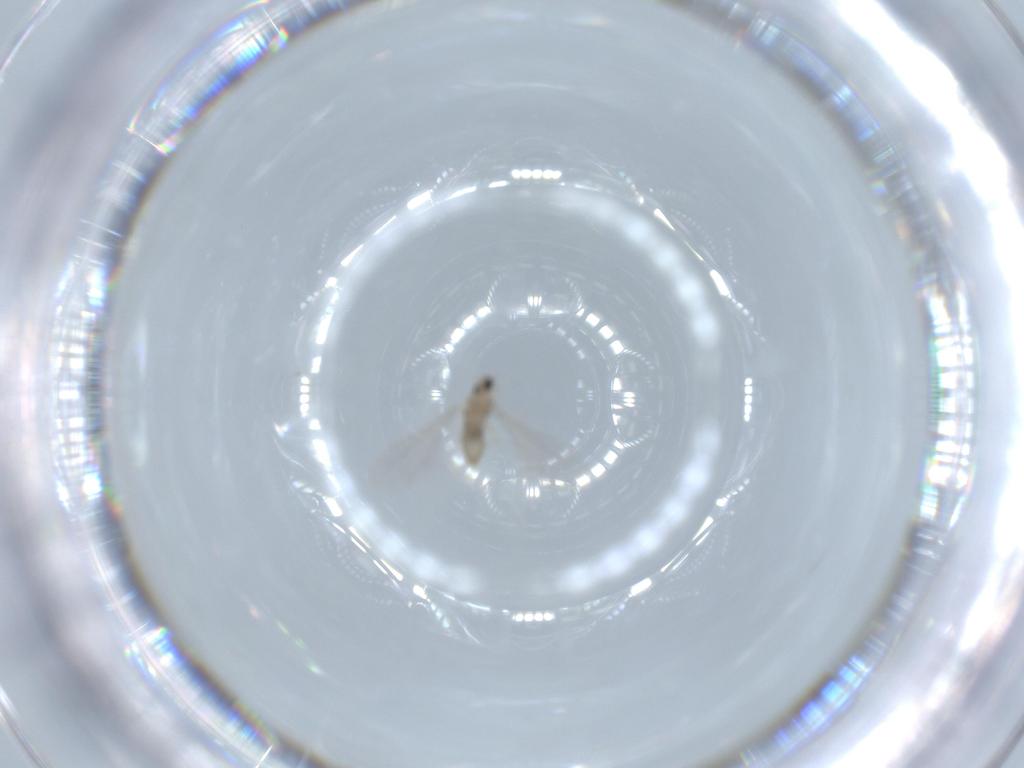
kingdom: Animalia
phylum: Arthropoda
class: Insecta
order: Diptera
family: Cecidomyiidae
